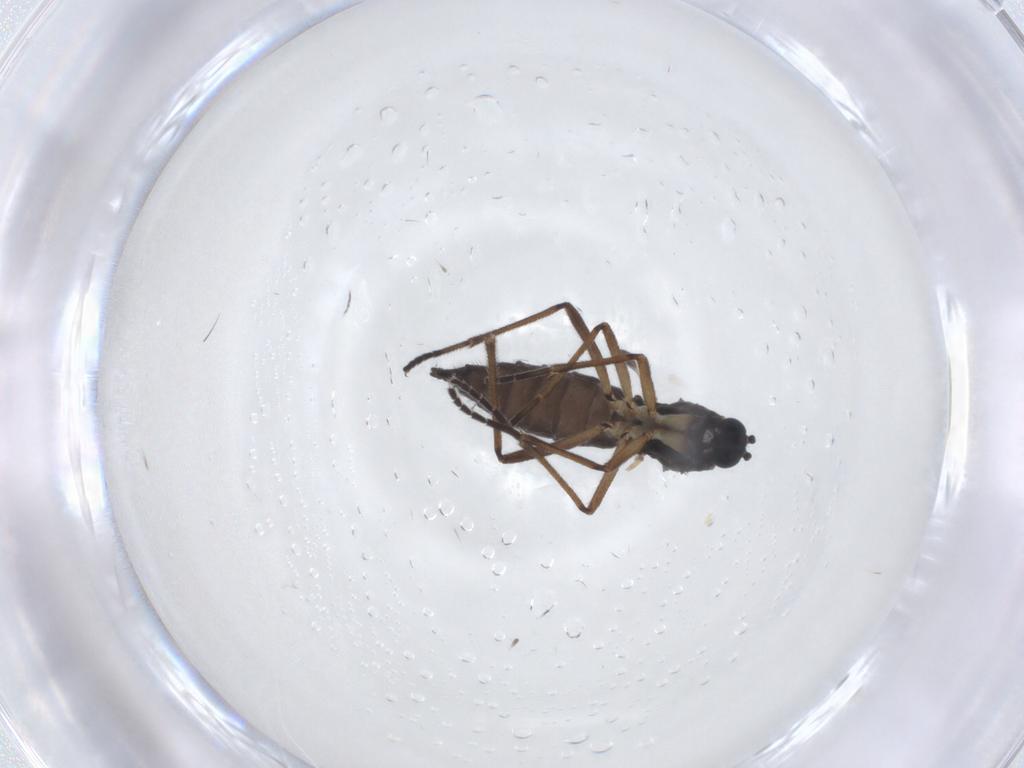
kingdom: Animalia
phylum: Arthropoda
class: Insecta
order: Diptera
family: Sciaridae
